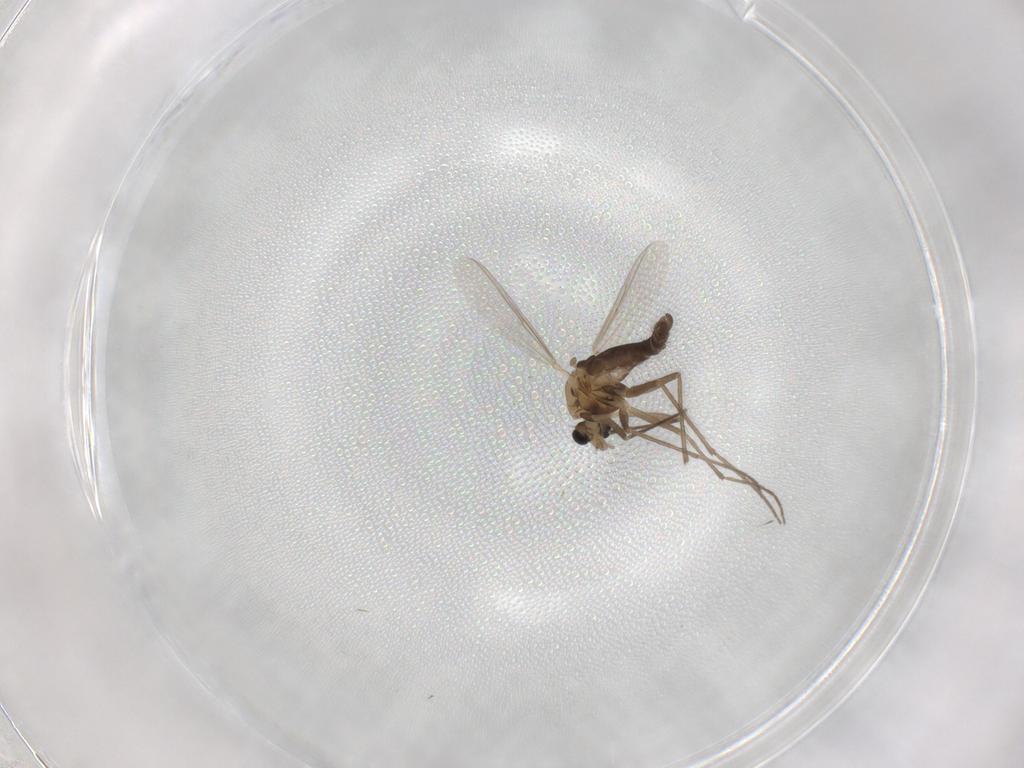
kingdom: Animalia
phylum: Arthropoda
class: Insecta
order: Diptera
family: Chironomidae
